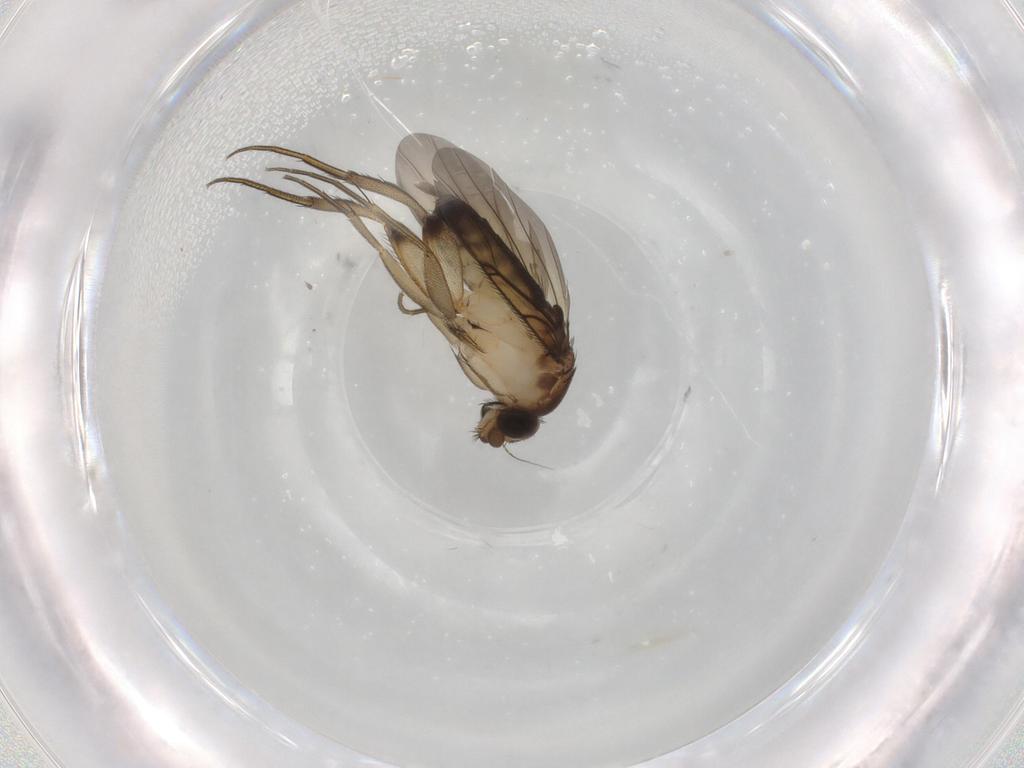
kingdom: Animalia
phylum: Arthropoda
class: Insecta
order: Diptera
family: Phoridae
